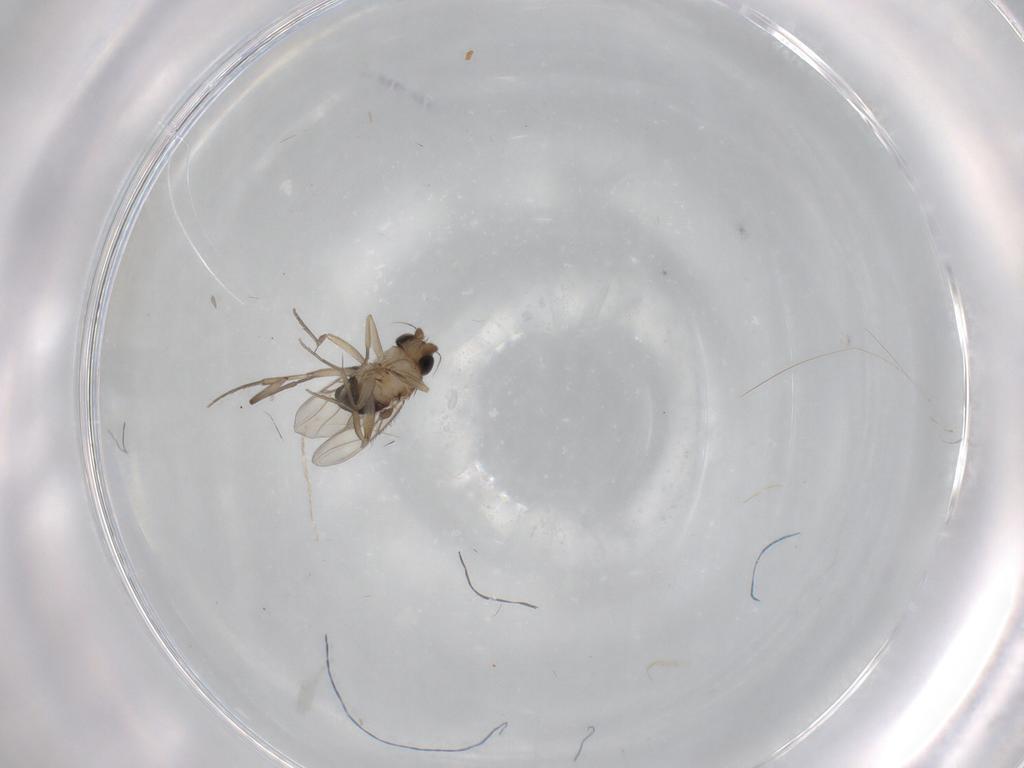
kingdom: Animalia
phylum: Arthropoda
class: Insecta
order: Diptera
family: Phoridae
